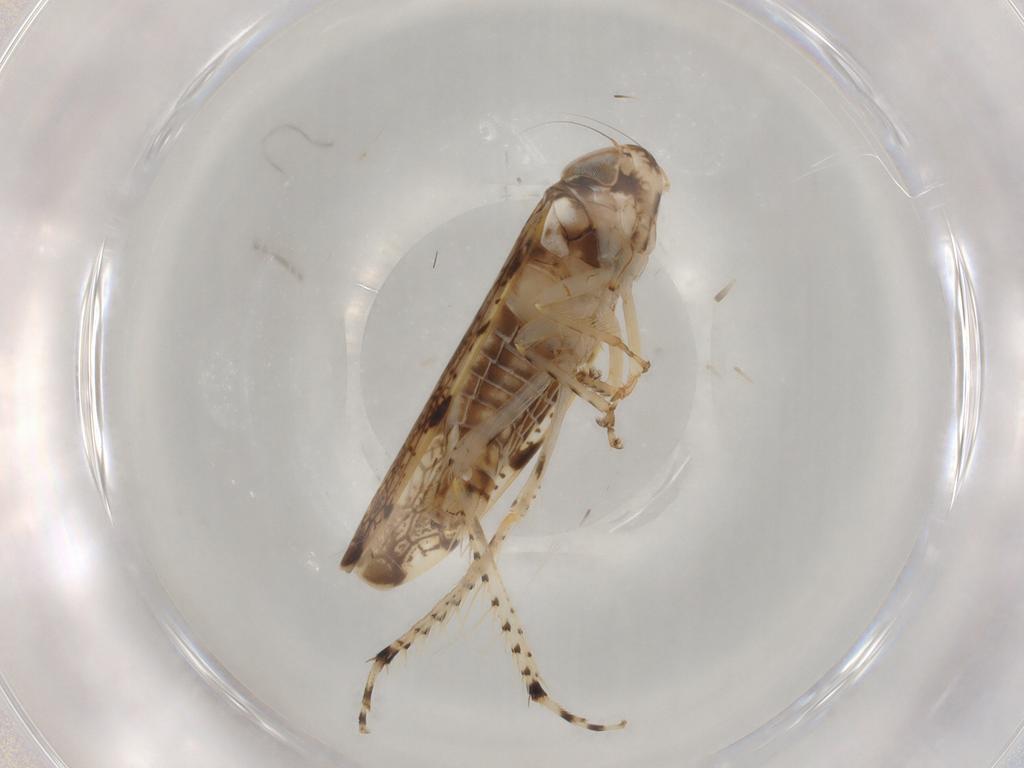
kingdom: Animalia
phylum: Arthropoda
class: Insecta
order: Hemiptera
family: Cicadellidae
